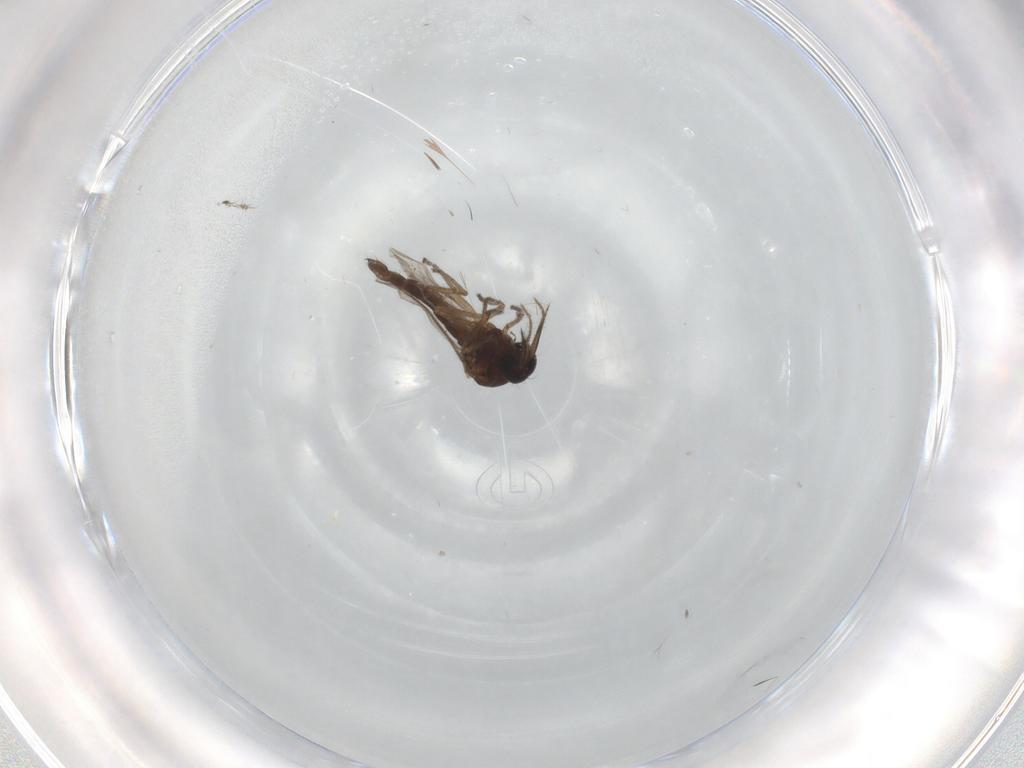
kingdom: Animalia
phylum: Arthropoda
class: Insecta
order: Diptera
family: Ceratopogonidae
